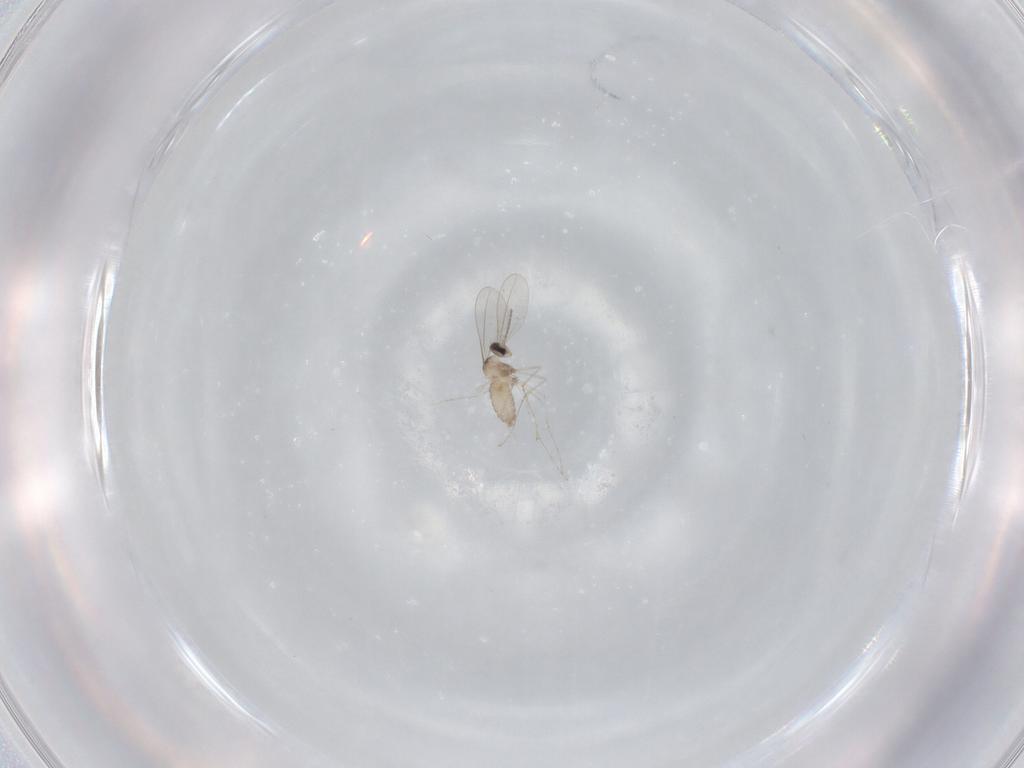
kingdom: Animalia
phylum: Arthropoda
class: Insecta
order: Diptera
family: Cecidomyiidae
